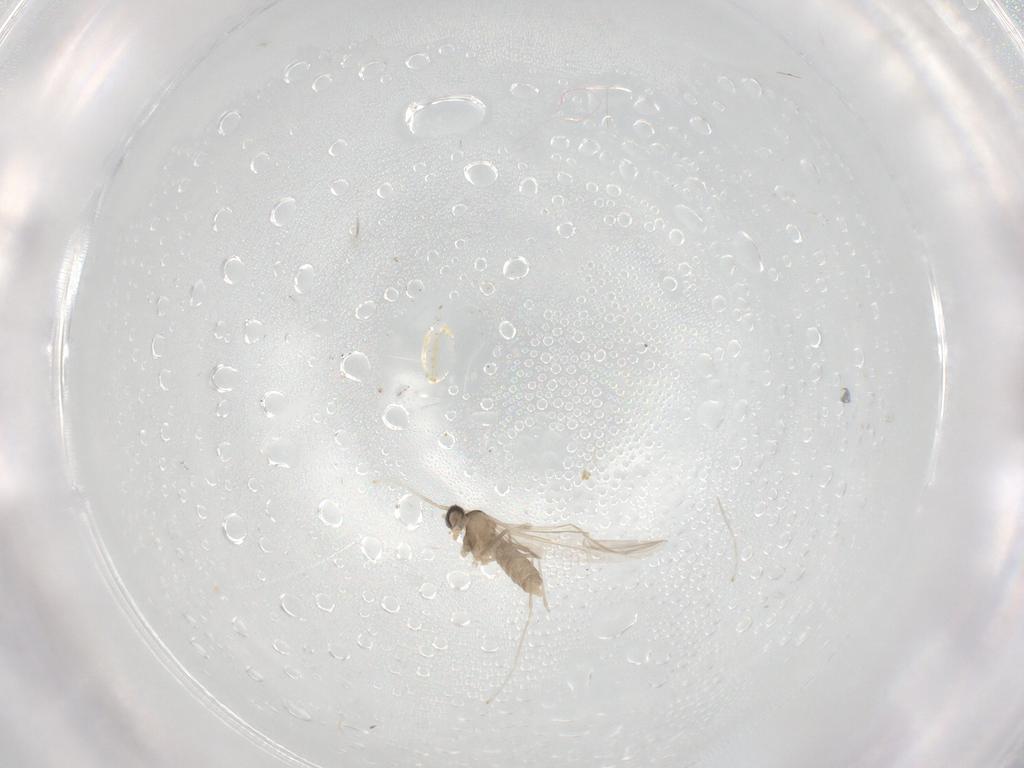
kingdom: Animalia
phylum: Arthropoda
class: Insecta
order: Diptera
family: Cecidomyiidae
